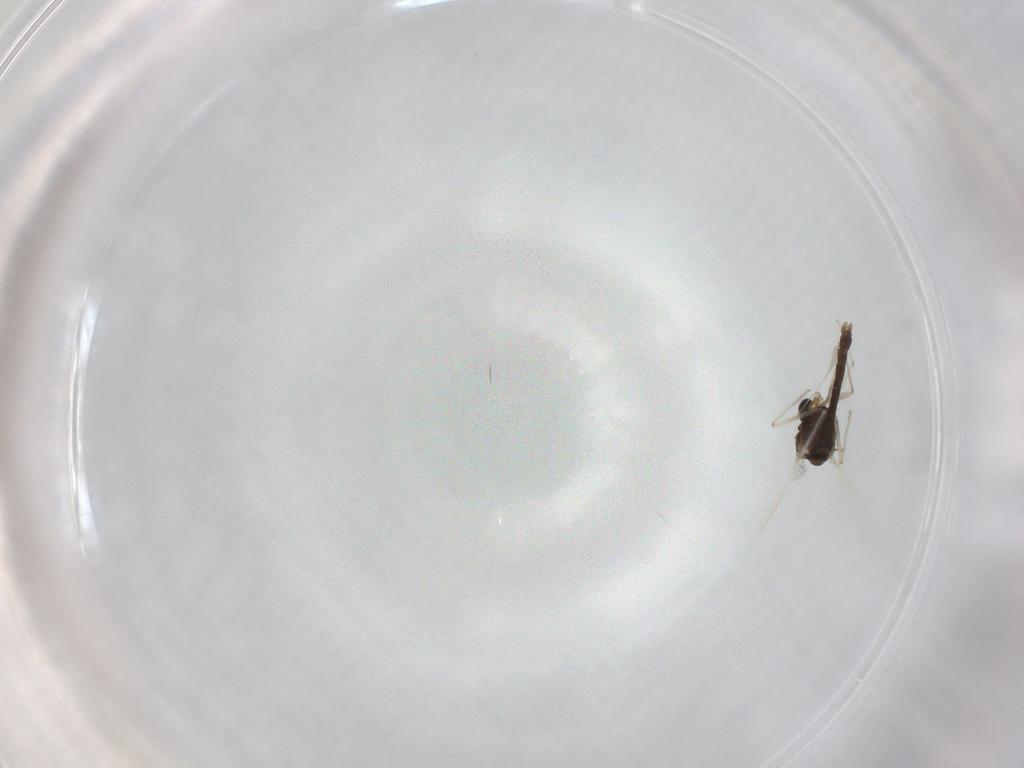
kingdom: Animalia
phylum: Arthropoda
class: Insecta
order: Diptera
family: Chironomidae
